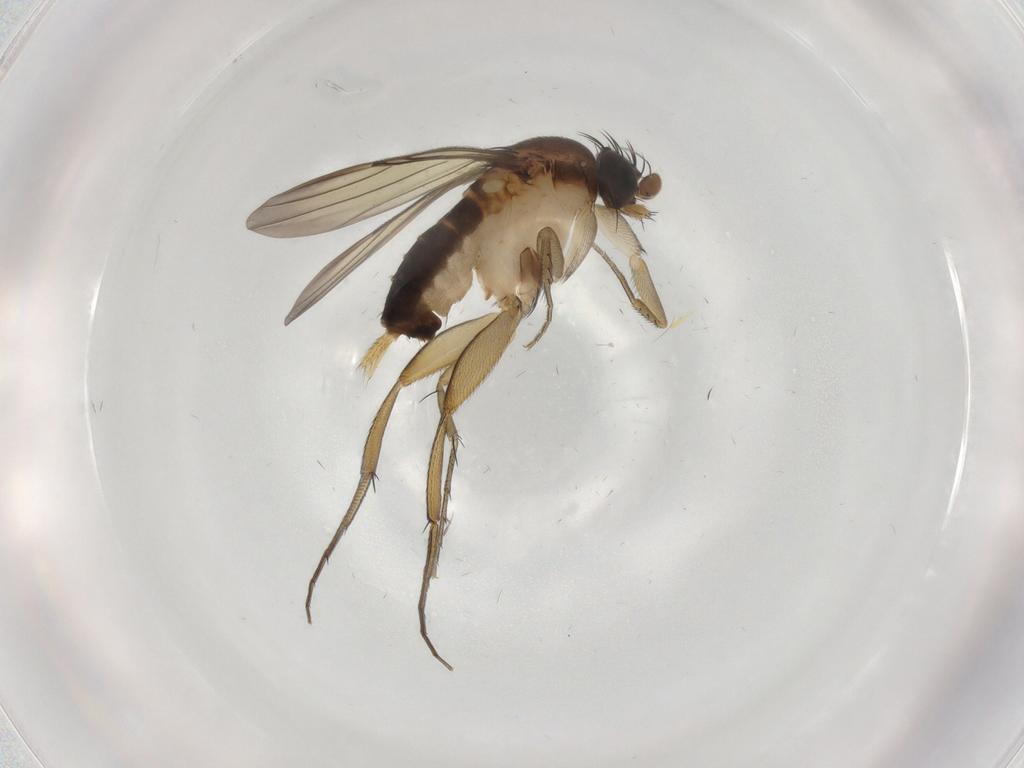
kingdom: Animalia
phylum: Arthropoda
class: Insecta
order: Diptera
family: Phoridae
